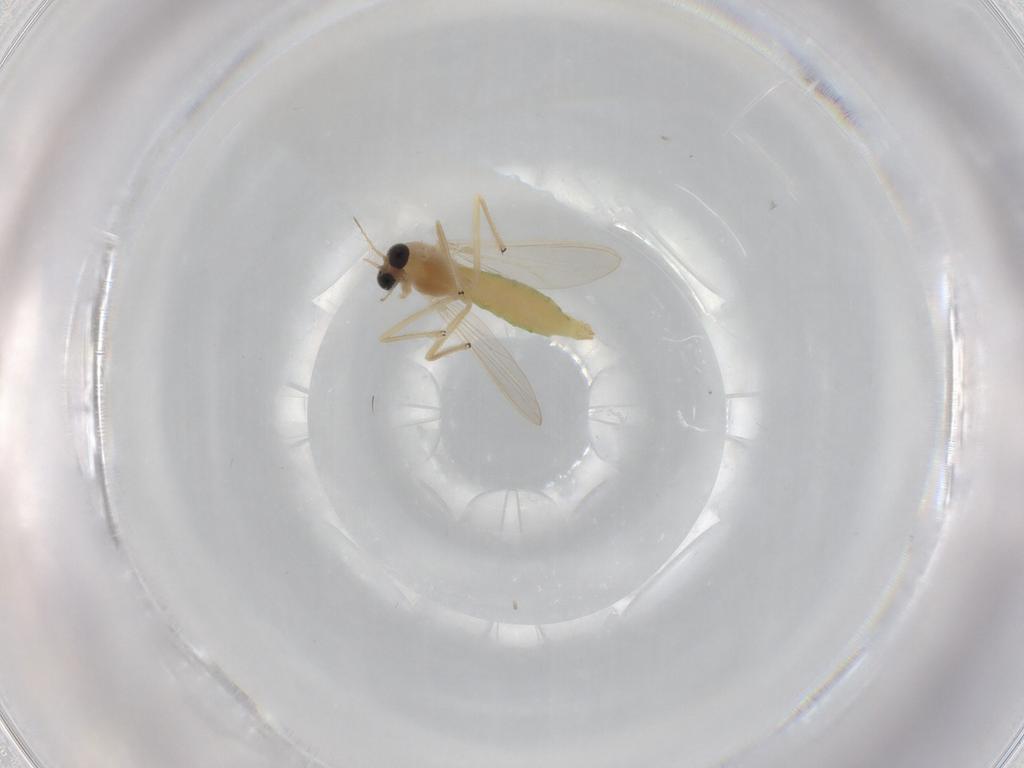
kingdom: Animalia
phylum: Arthropoda
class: Insecta
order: Diptera
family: Chironomidae
